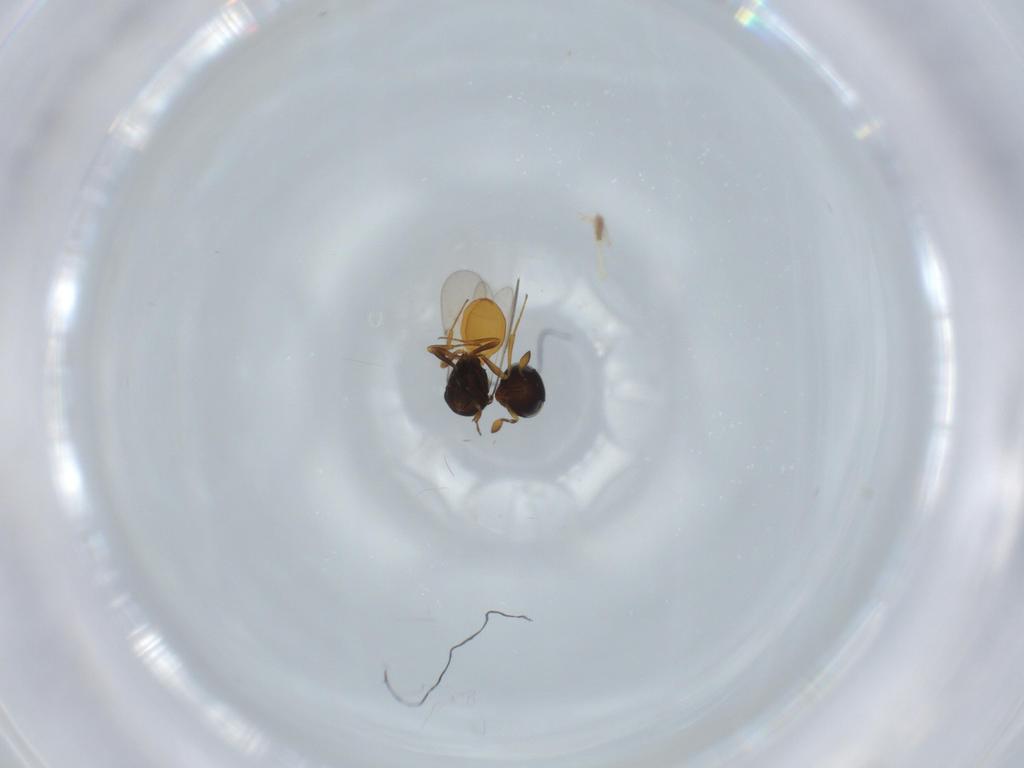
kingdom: Animalia
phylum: Arthropoda
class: Insecta
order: Hymenoptera
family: Scelionidae
